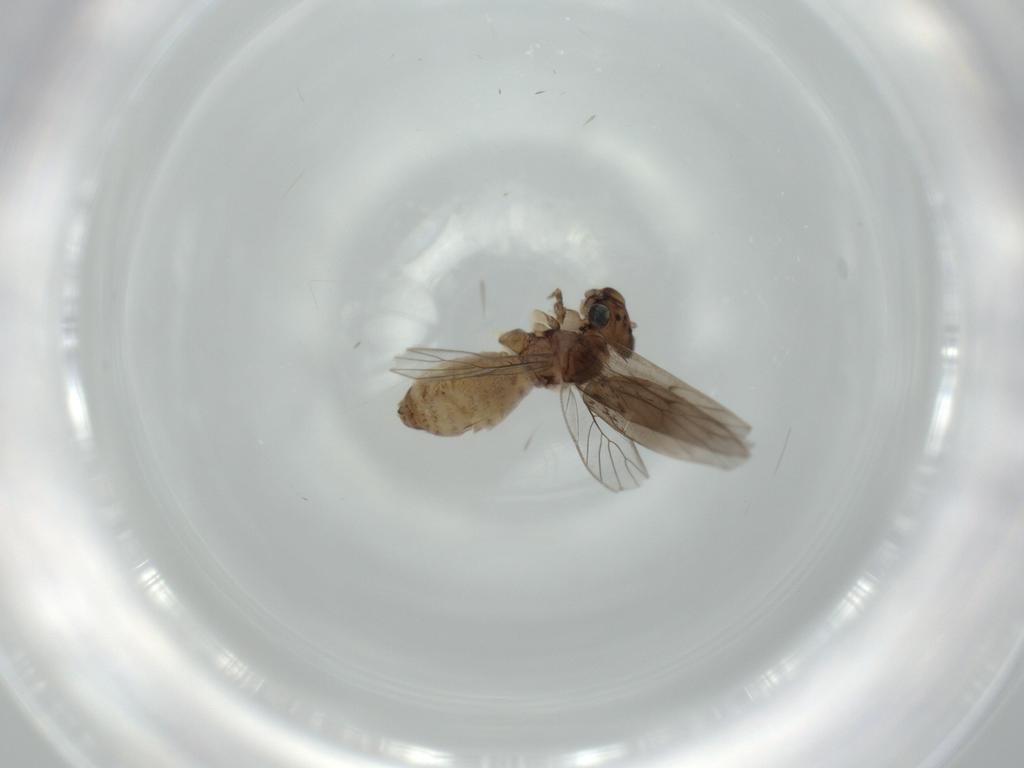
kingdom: Animalia
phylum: Arthropoda
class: Insecta
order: Psocodea
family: Lepidopsocidae
